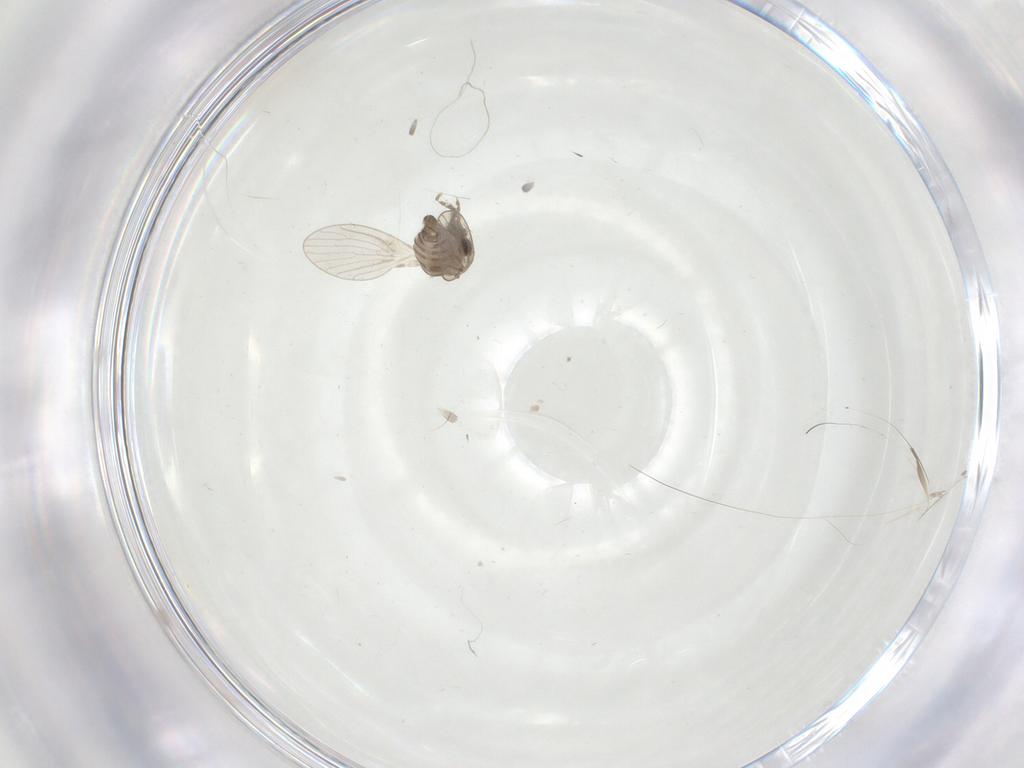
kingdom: Animalia
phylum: Arthropoda
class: Insecta
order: Diptera
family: Psychodidae
